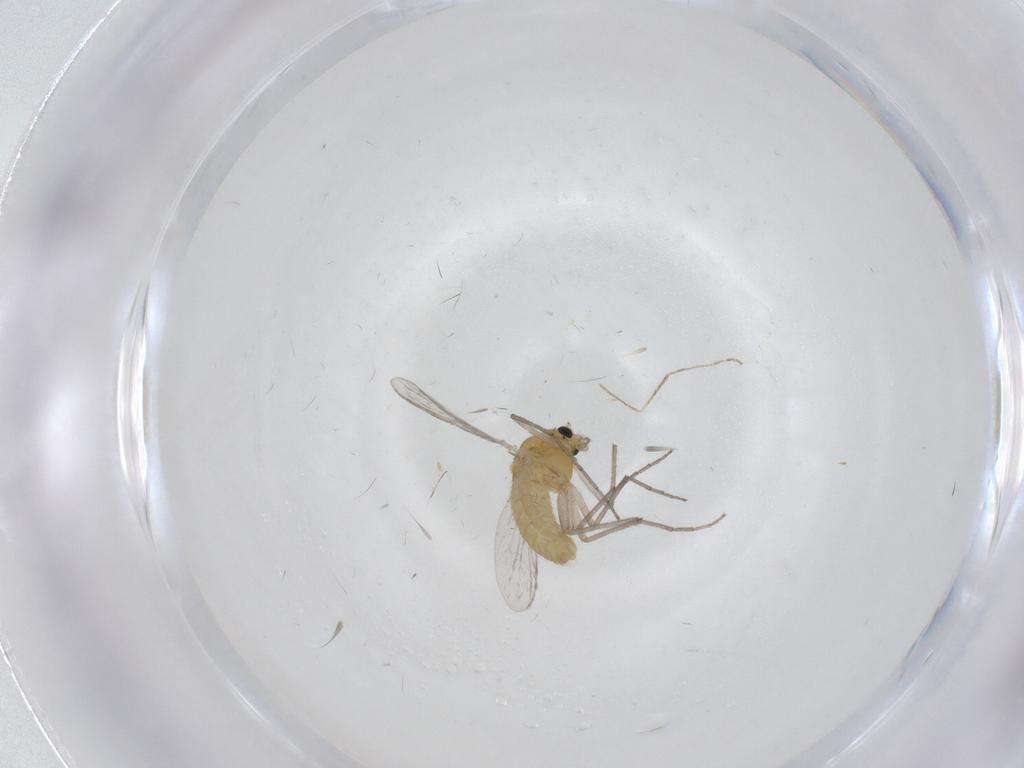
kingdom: Animalia
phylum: Arthropoda
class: Insecta
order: Diptera
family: Chironomidae
